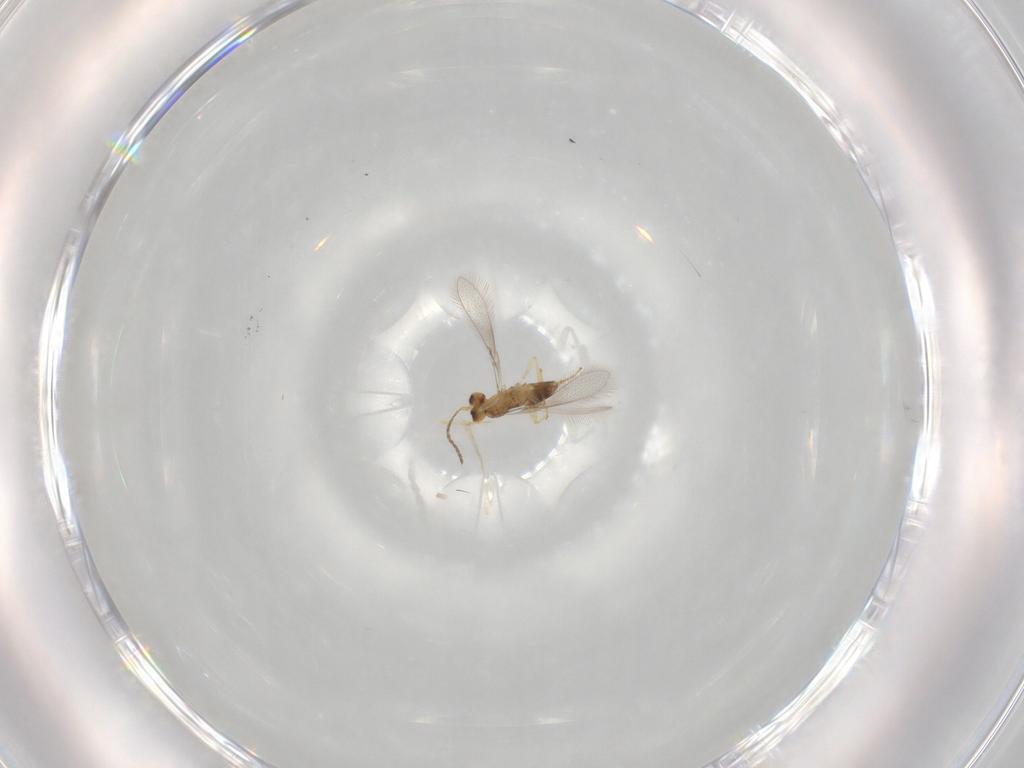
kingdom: Animalia
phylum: Arthropoda
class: Insecta
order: Hymenoptera
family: Mymaridae
